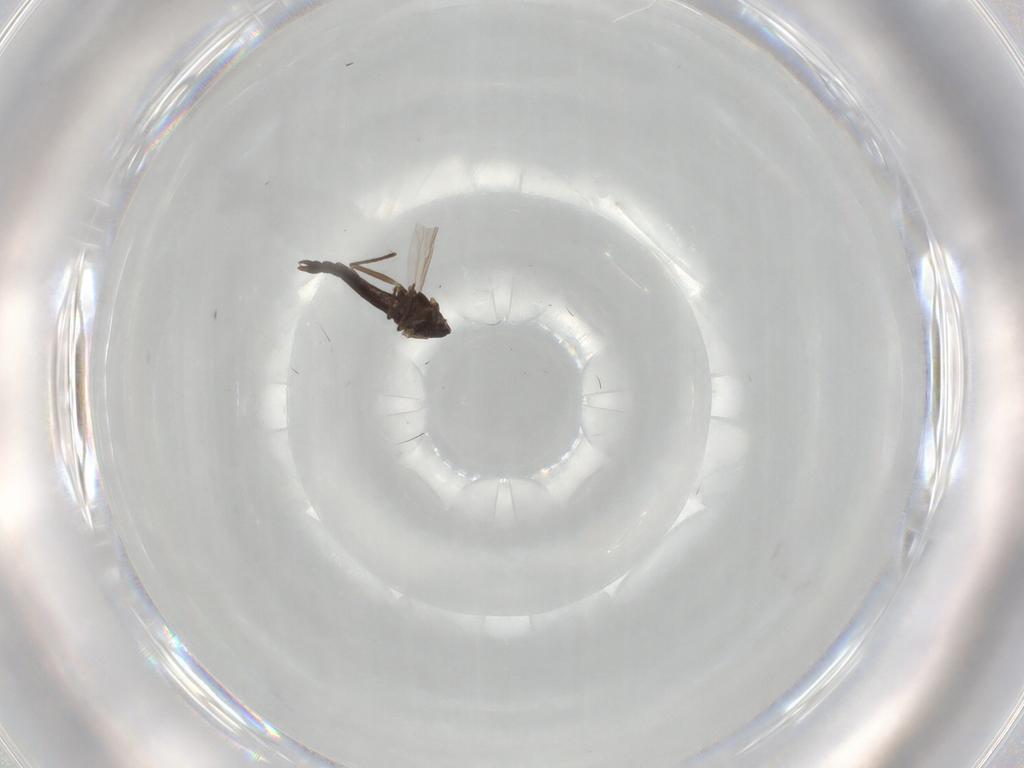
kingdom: Animalia
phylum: Arthropoda
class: Insecta
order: Diptera
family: Chironomidae
